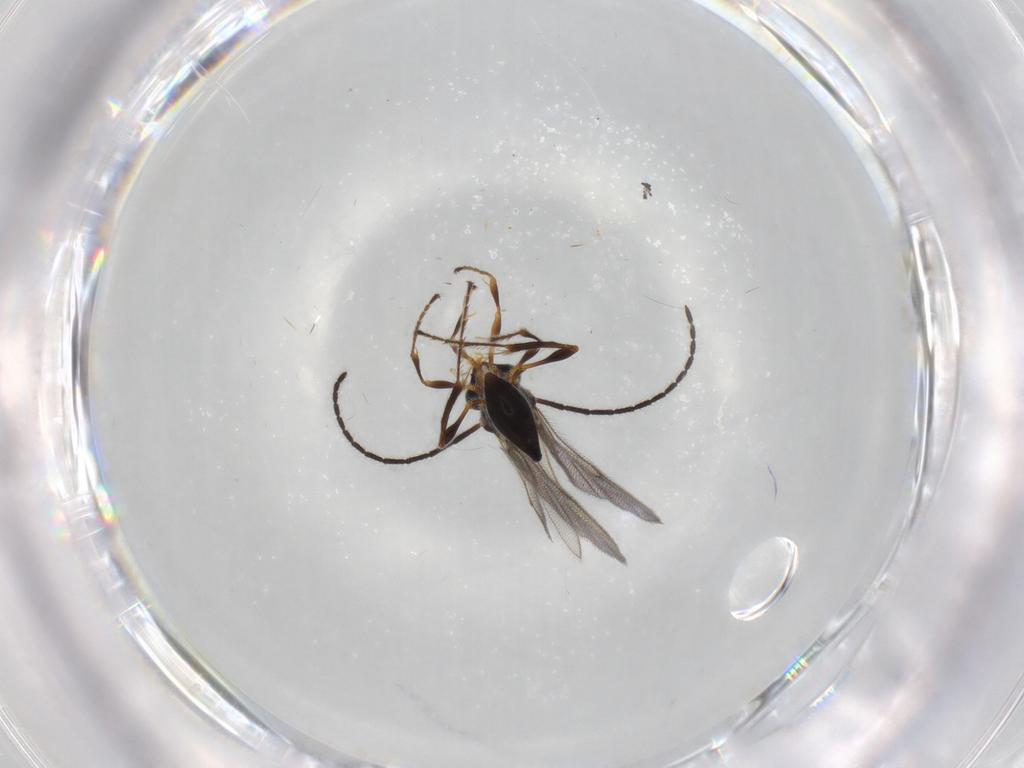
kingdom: Animalia
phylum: Arthropoda
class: Insecta
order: Hymenoptera
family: Diapriidae
